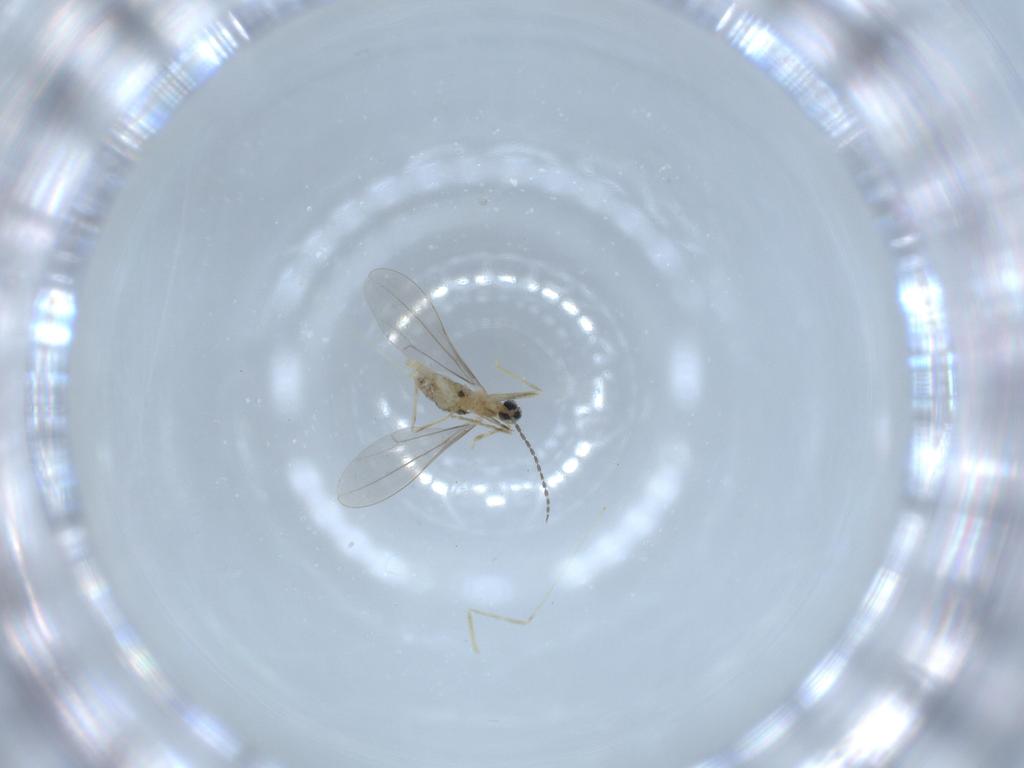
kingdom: Animalia
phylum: Arthropoda
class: Insecta
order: Diptera
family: Cecidomyiidae
